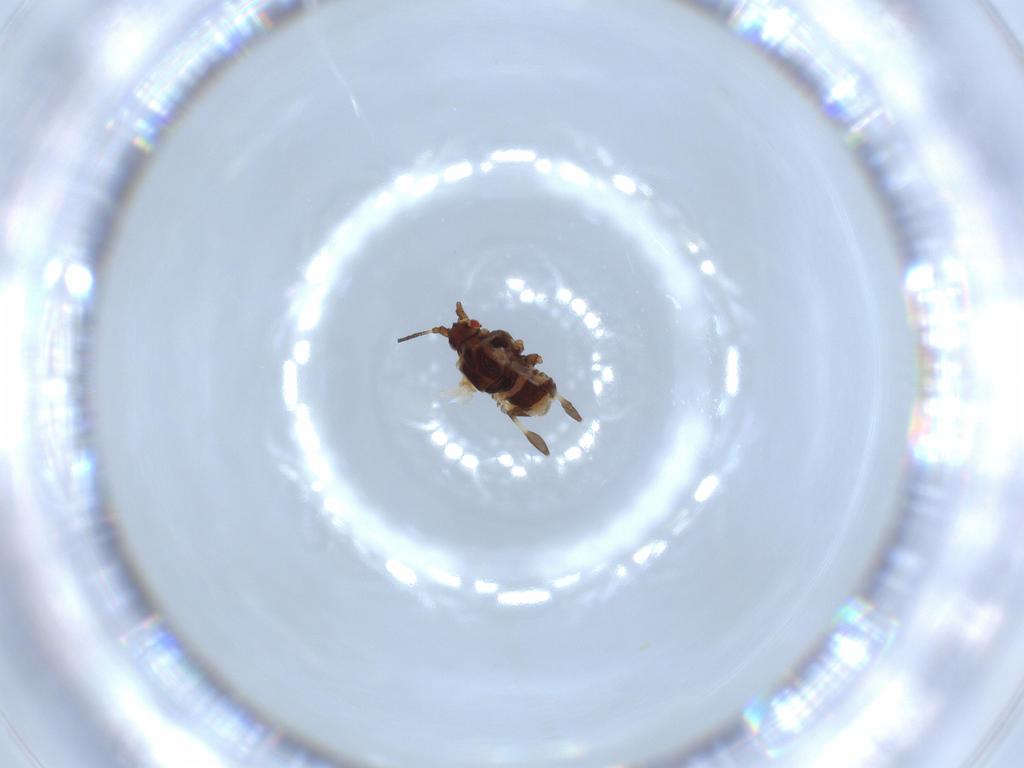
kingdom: Animalia
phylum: Arthropoda
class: Insecta
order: Hemiptera
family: Aphididae
